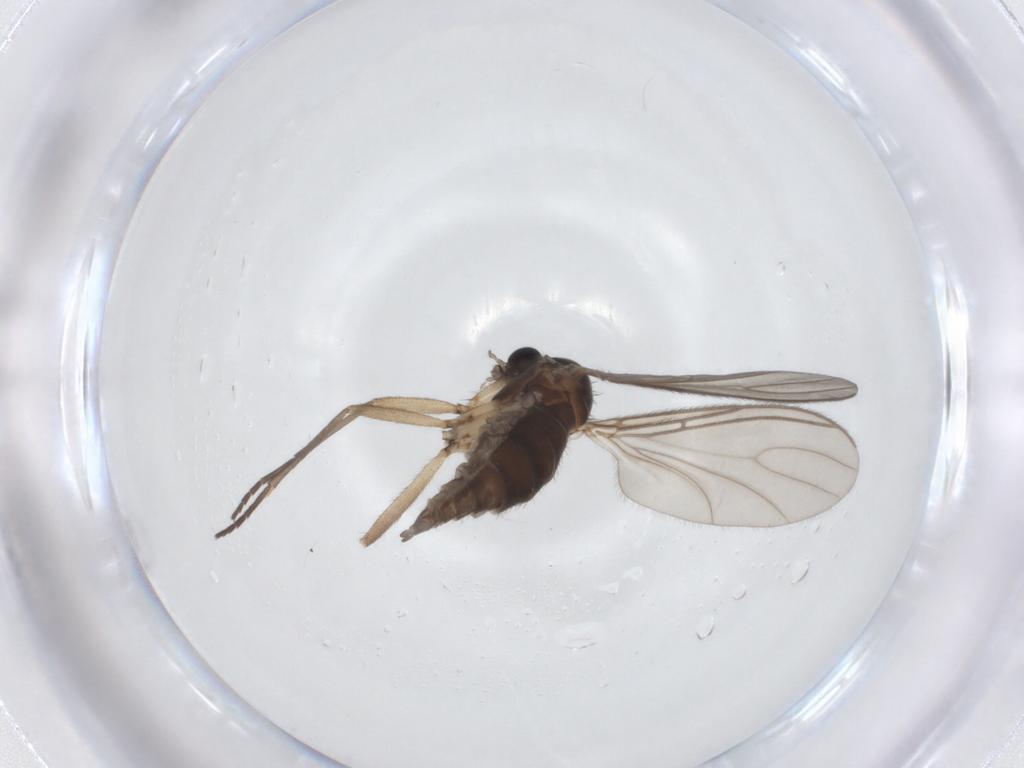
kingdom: Animalia
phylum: Arthropoda
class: Insecta
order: Diptera
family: Sciaridae
